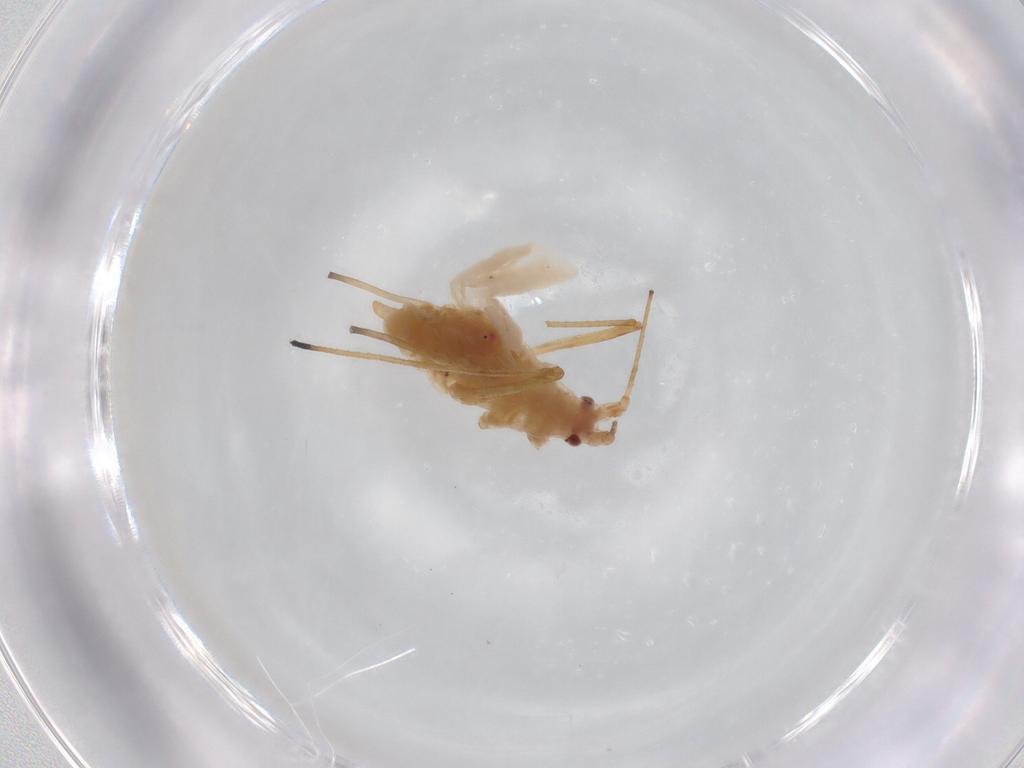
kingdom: Animalia
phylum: Arthropoda
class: Insecta
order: Hemiptera
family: Aphididae
